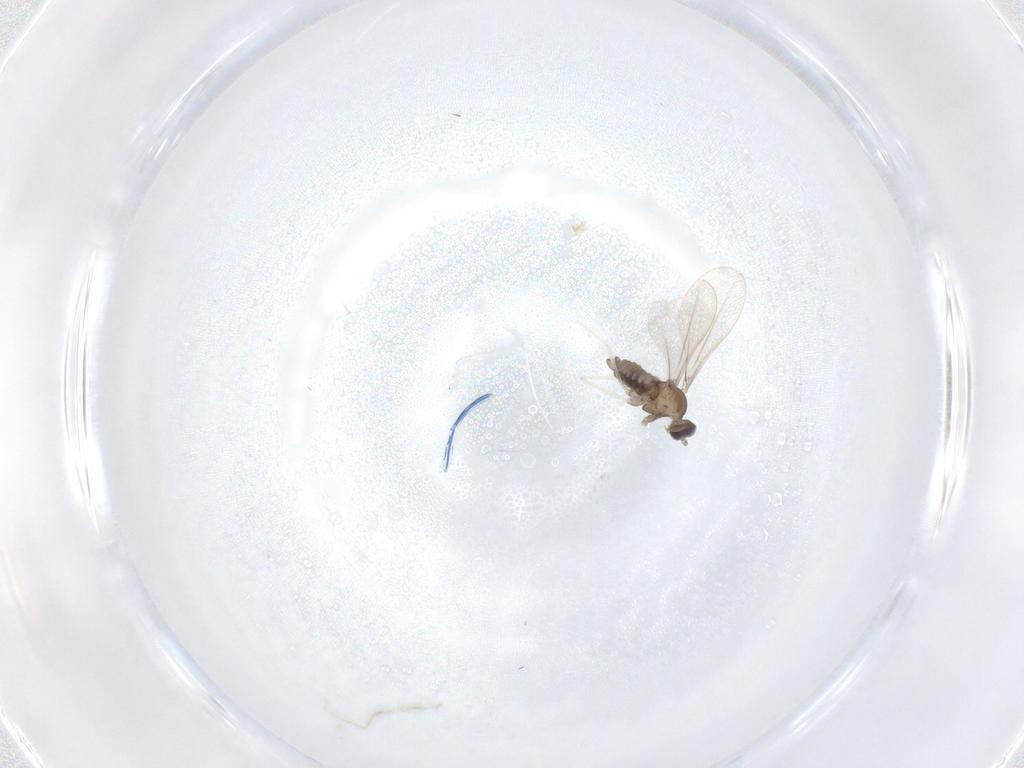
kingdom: Animalia
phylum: Arthropoda
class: Insecta
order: Diptera
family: Cecidomyiidae
